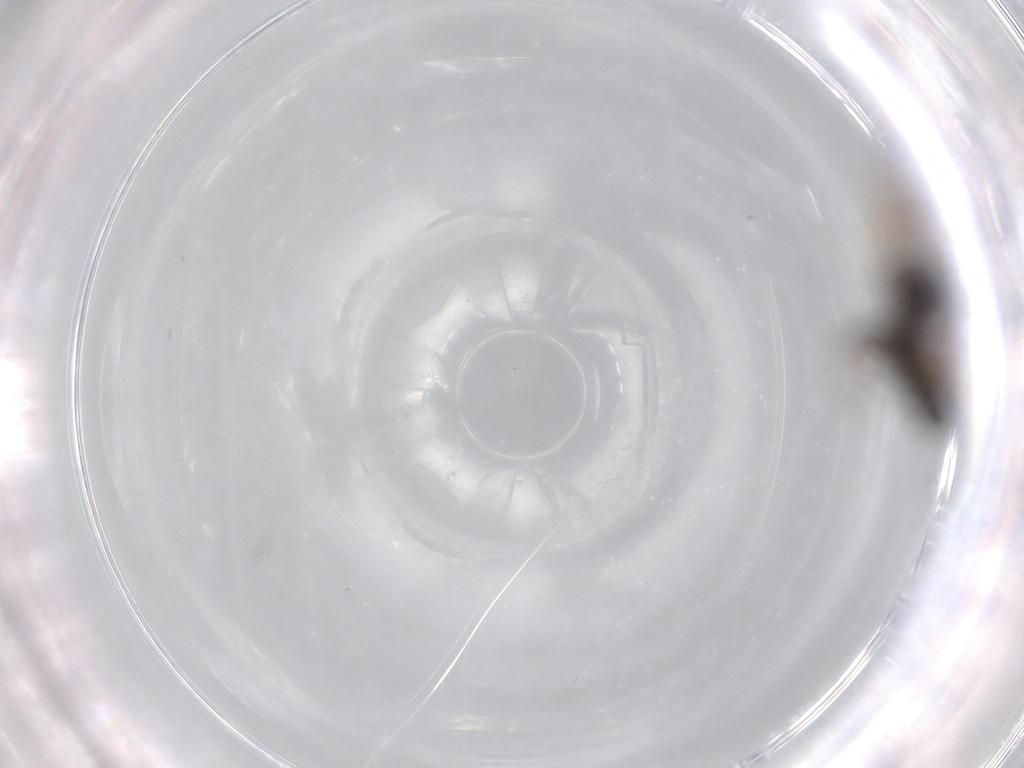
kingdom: Animalia
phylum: Arthropoda
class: Insecta
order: Hymenoptera
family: Bethylidae
